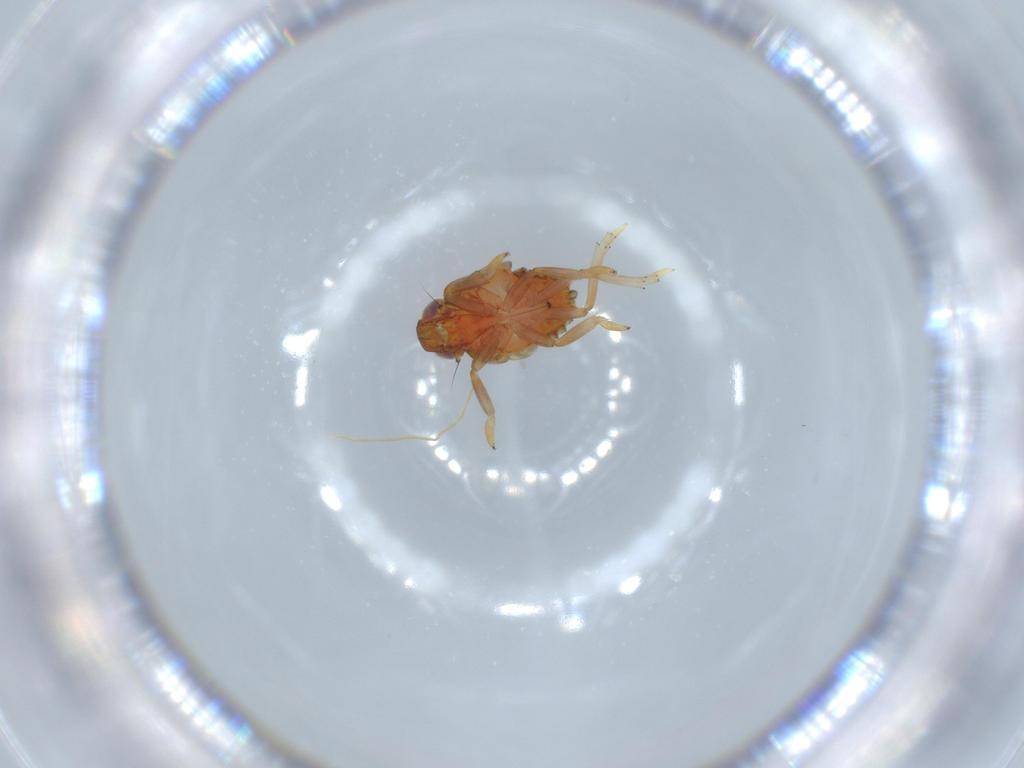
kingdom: Animalia
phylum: Arthropoda
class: Insecta
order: Hemiptera
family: Issidae
